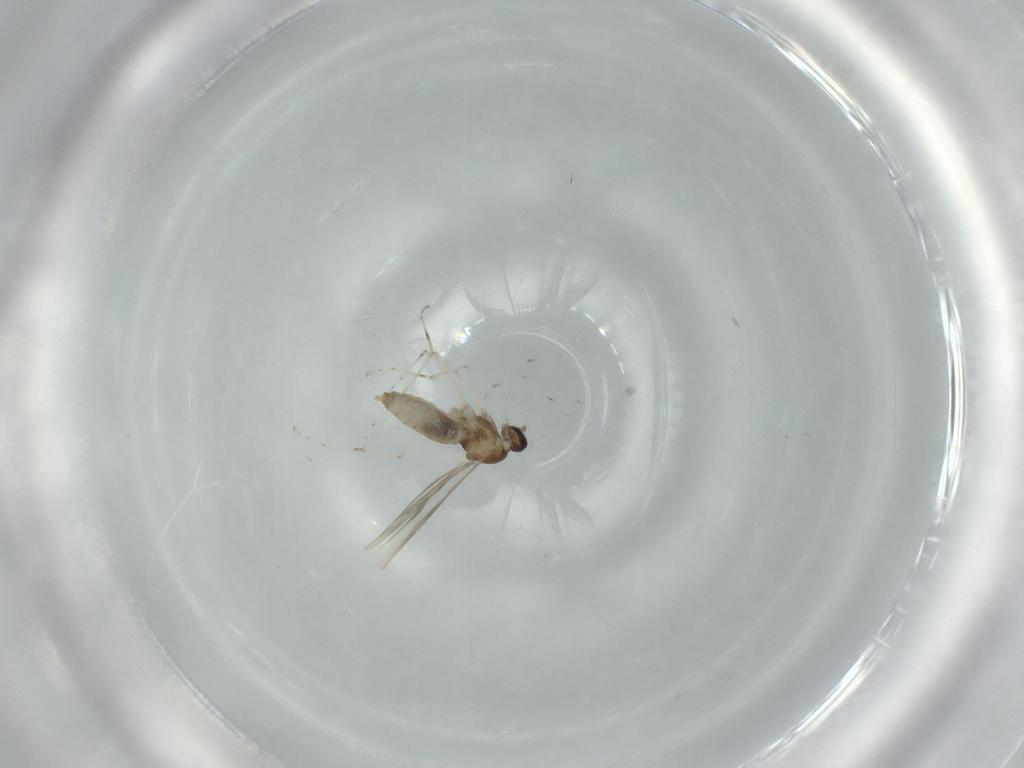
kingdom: Animalia
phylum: Arthropoda
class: Insecta
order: Diptera
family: Cecidomyiidae
